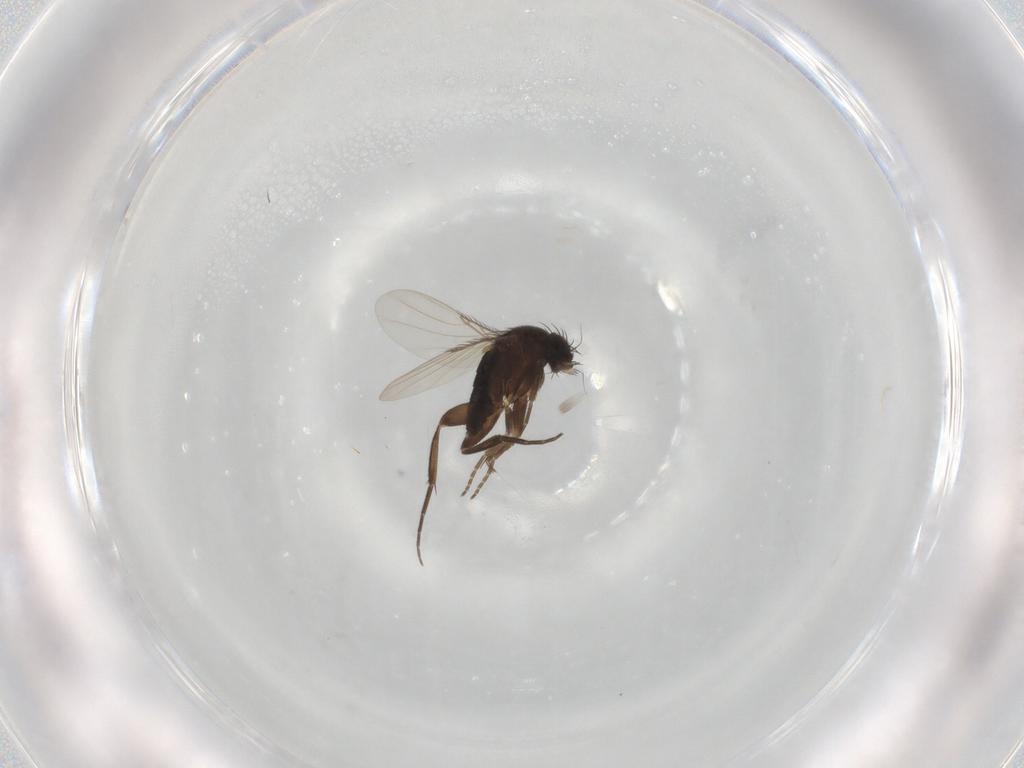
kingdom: Animalia
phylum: Arthropoda
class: Insecta
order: Diptera
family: Phoridae
